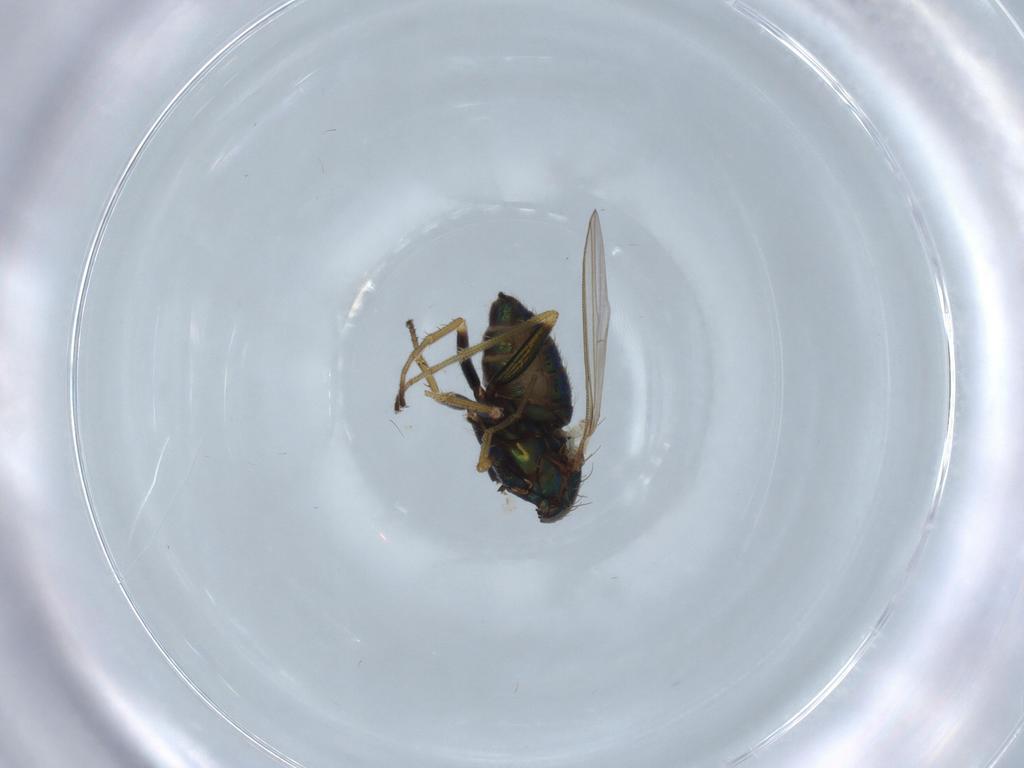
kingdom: Animalia
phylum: Arthropoda
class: Insecta
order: Diptera
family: Dolichopodidae
